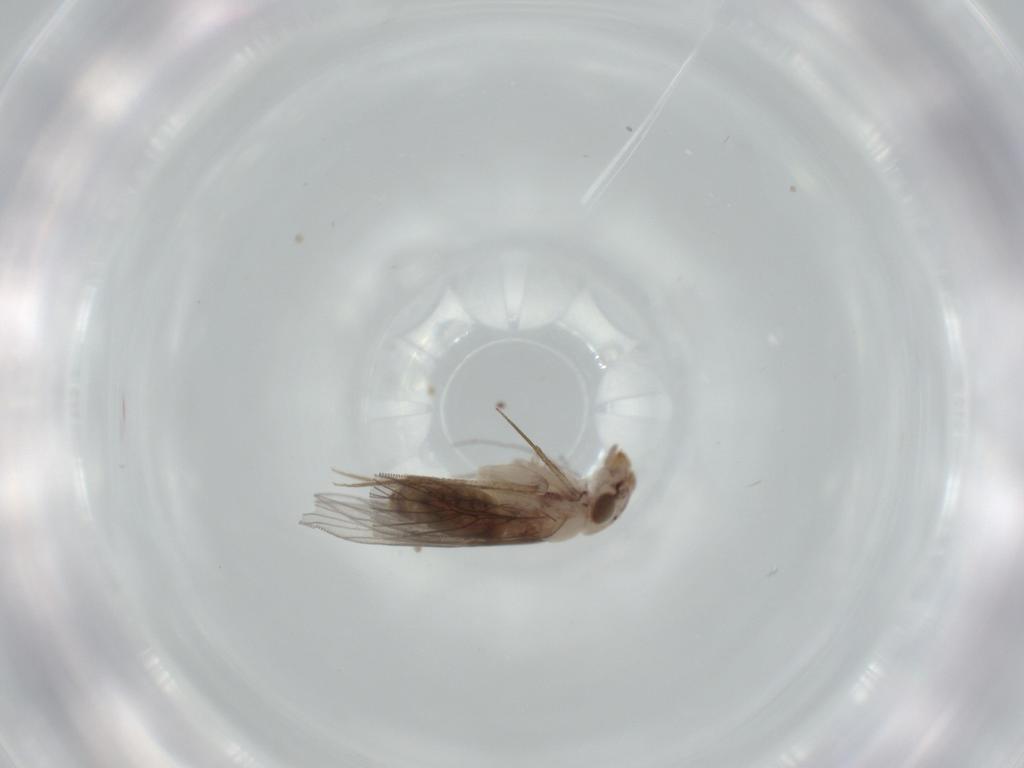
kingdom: Animalia
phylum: Arthropoda
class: Insecta
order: Psocodea
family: Lepidopsocidae
